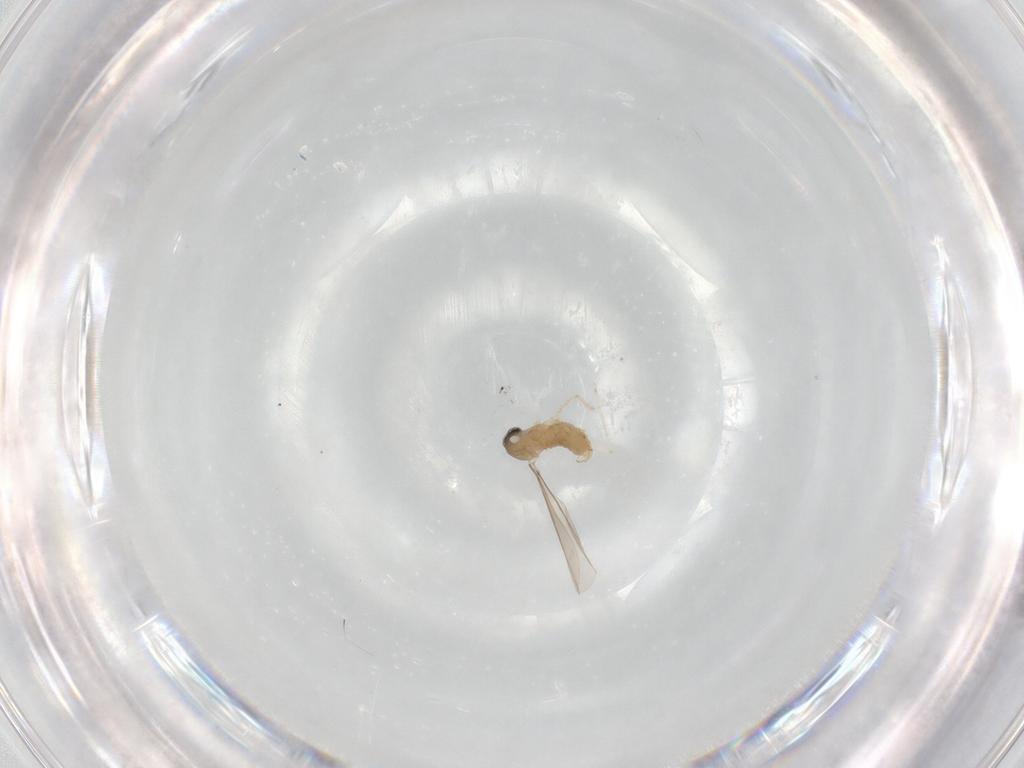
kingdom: Animalia
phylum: Arthropoda
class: Insecta
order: Diptera
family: Cecidomyiidae
